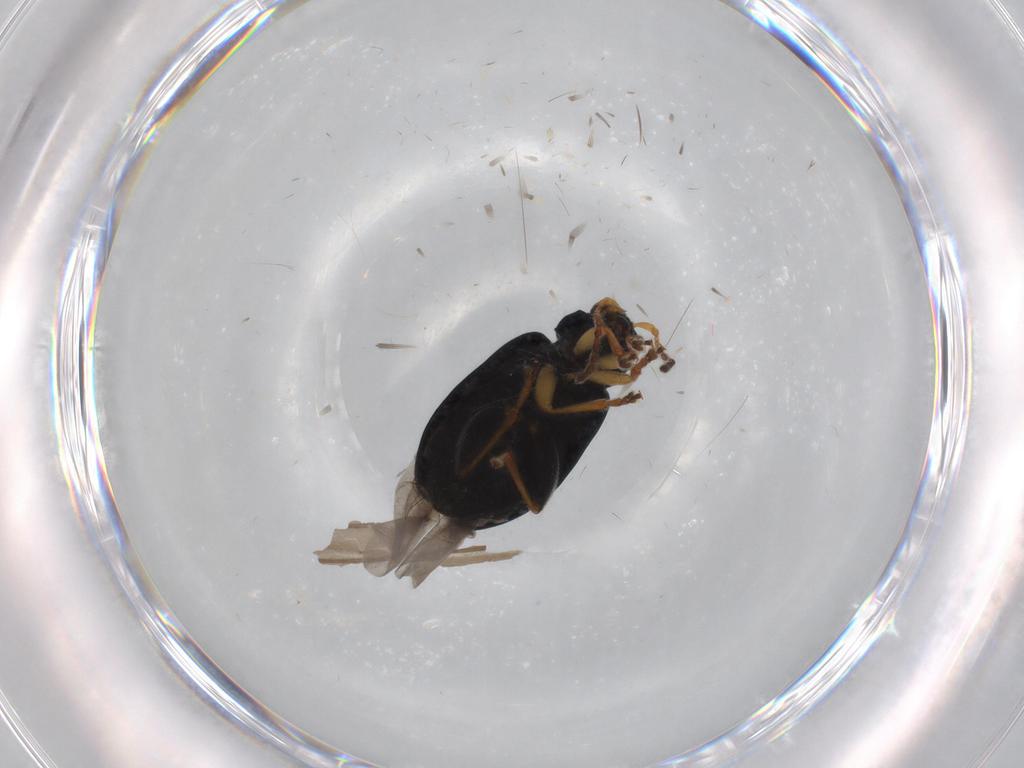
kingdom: Animalia
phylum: Arthropoda
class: Insecta
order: Coleoptera
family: Chrysomelidae
